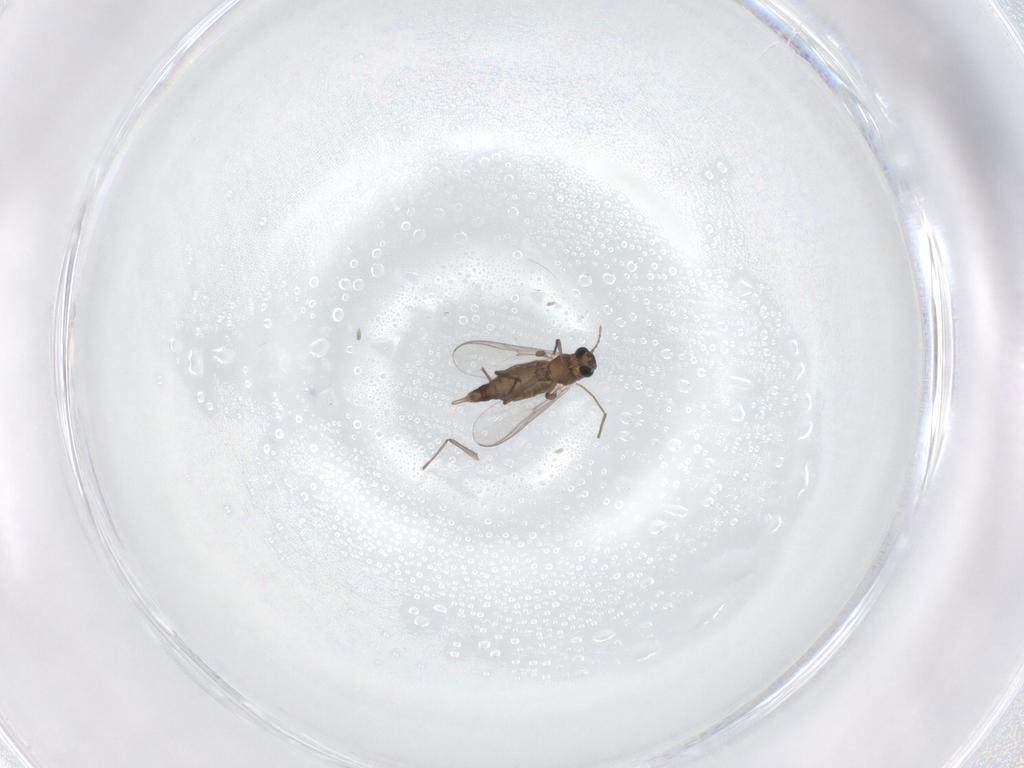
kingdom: Animalia
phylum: Arthropoda
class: Insecta
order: Diptera
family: Chironomidae
